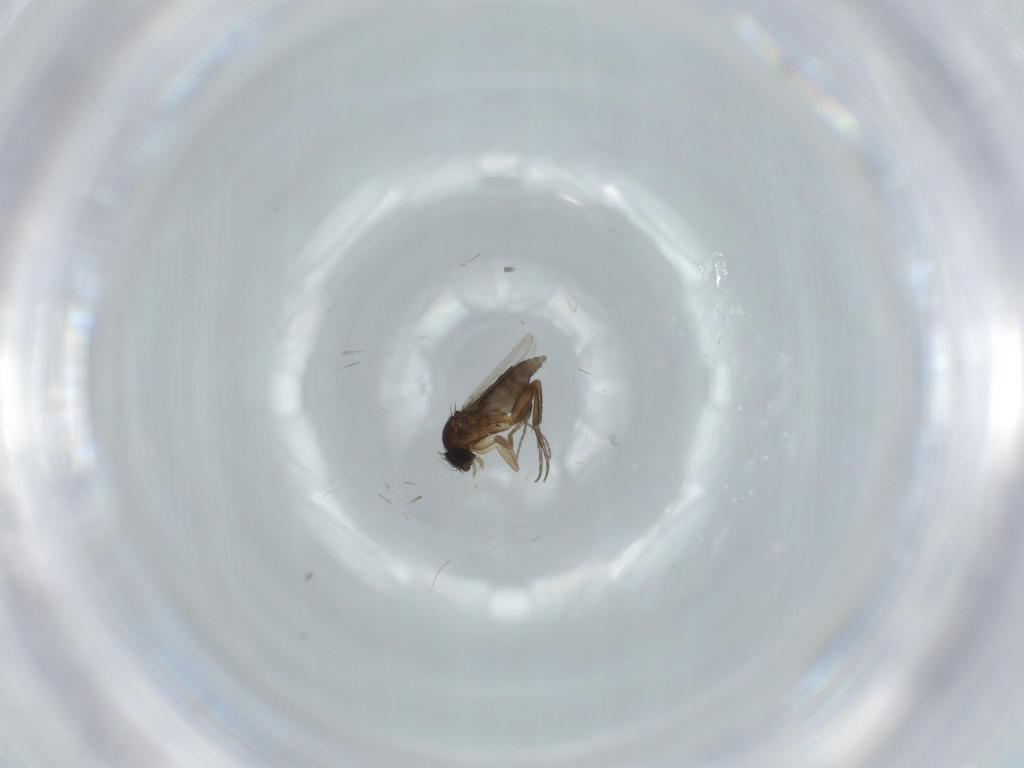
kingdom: Animalia
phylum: Arthropoda
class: Insecta
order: Diptera
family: Phoridae
